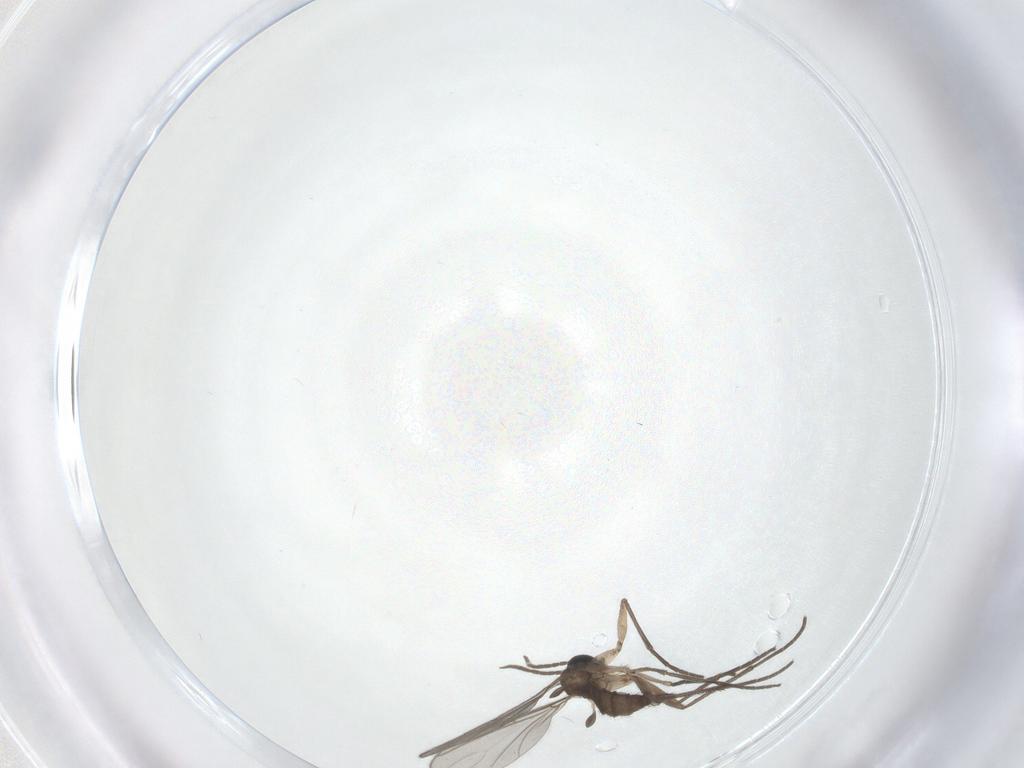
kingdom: Animalia
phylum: Arthropoda
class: Insecta
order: Diptera
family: Sciaridae
